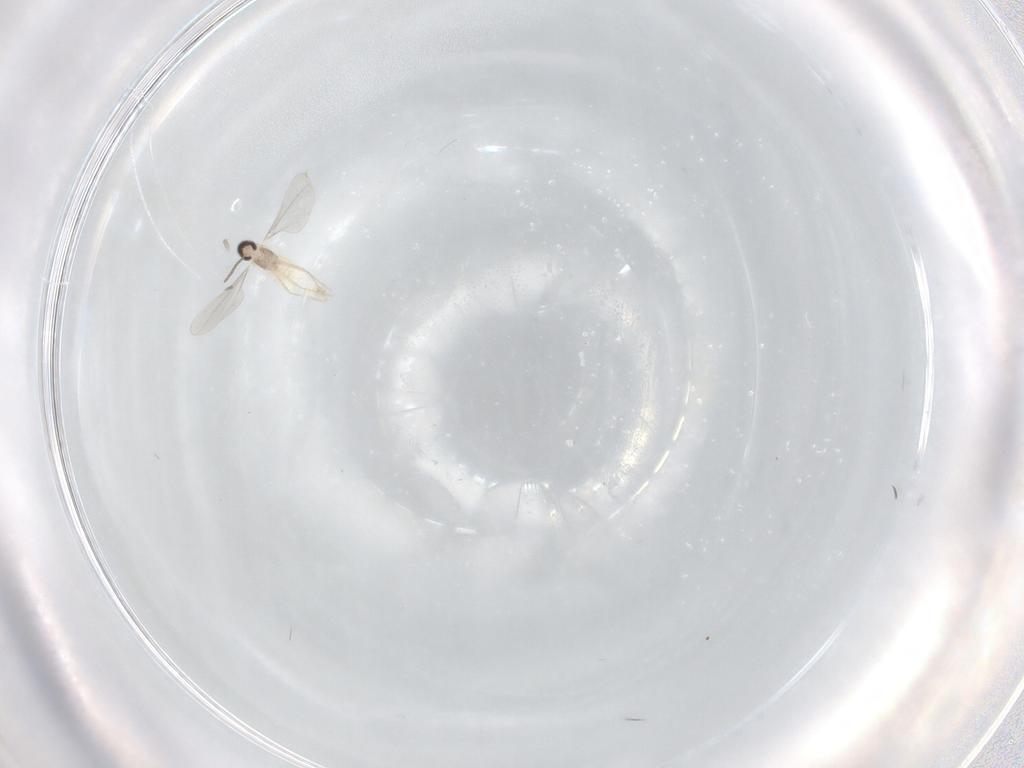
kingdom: Animalia
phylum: Arthropoda
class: Insecta
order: Diptera
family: Cecidomyiidae
